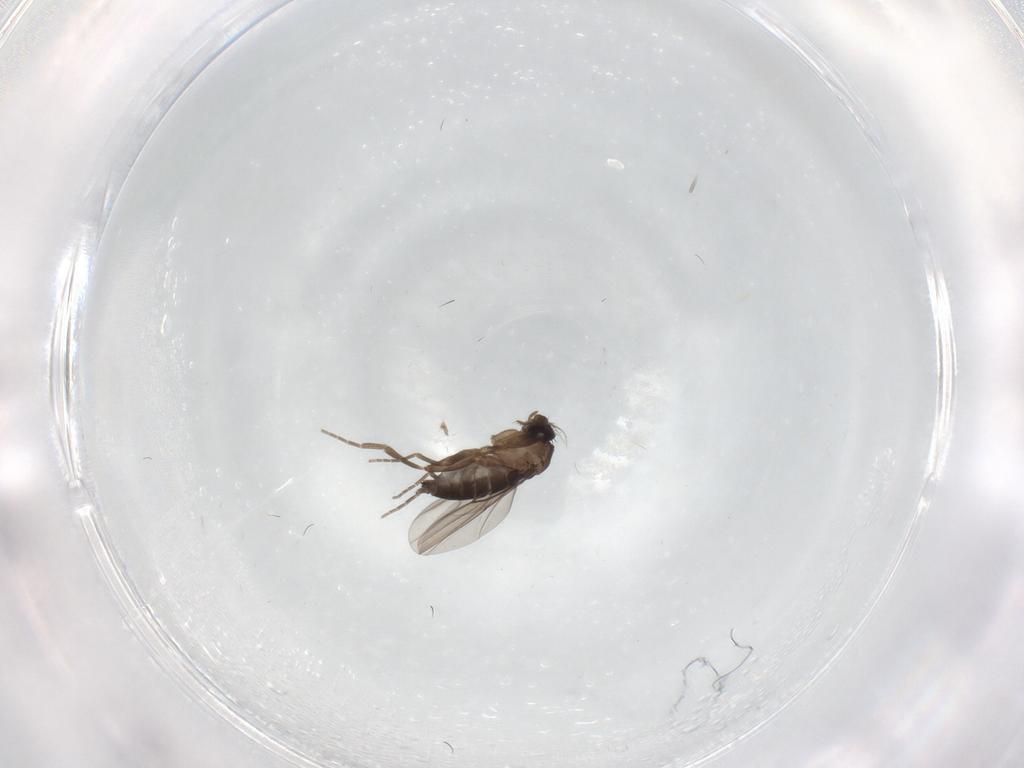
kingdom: Animalia
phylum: Arthropoda
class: Insecta
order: Diptera
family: Phoridae
